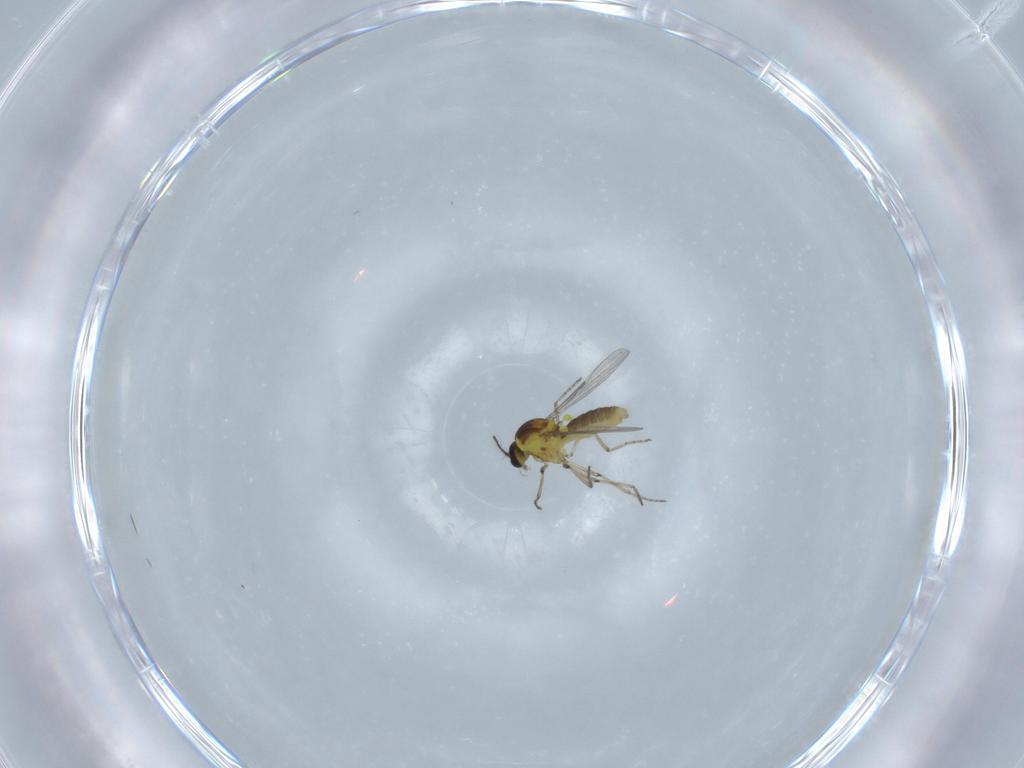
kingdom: Animalia
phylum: Arthropoda
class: Insecta
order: Diptera
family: Ceratopogonidae
